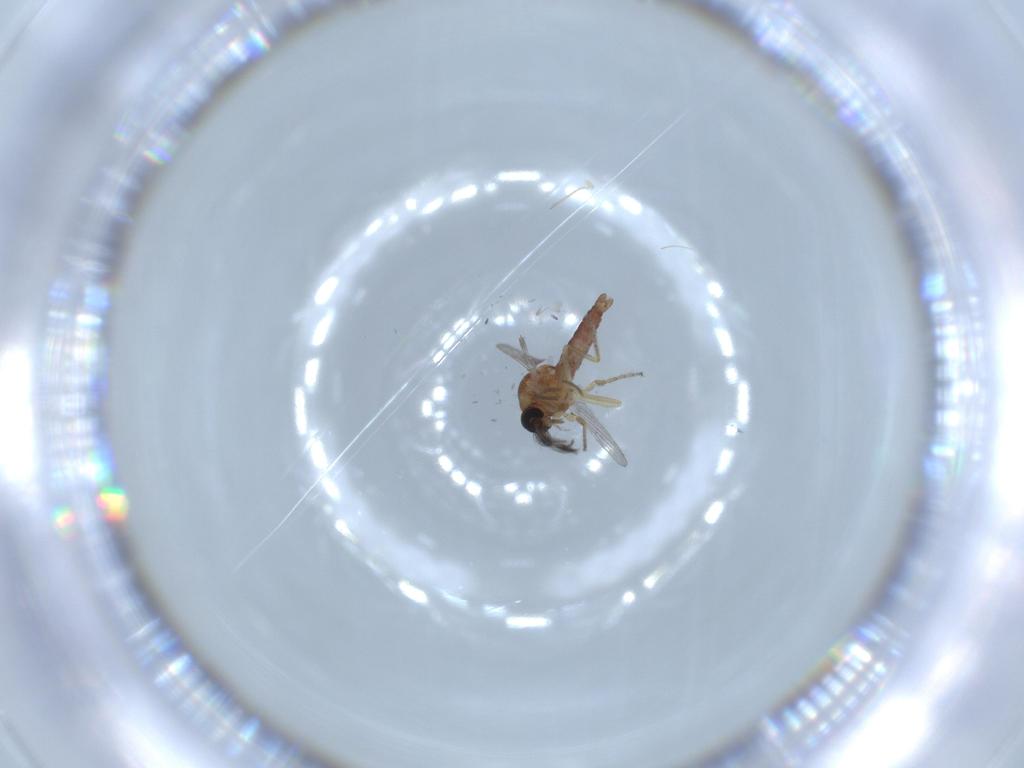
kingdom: Animalia
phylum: Arthropoda
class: Insecta
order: Diptera
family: Ceratopogonidae
